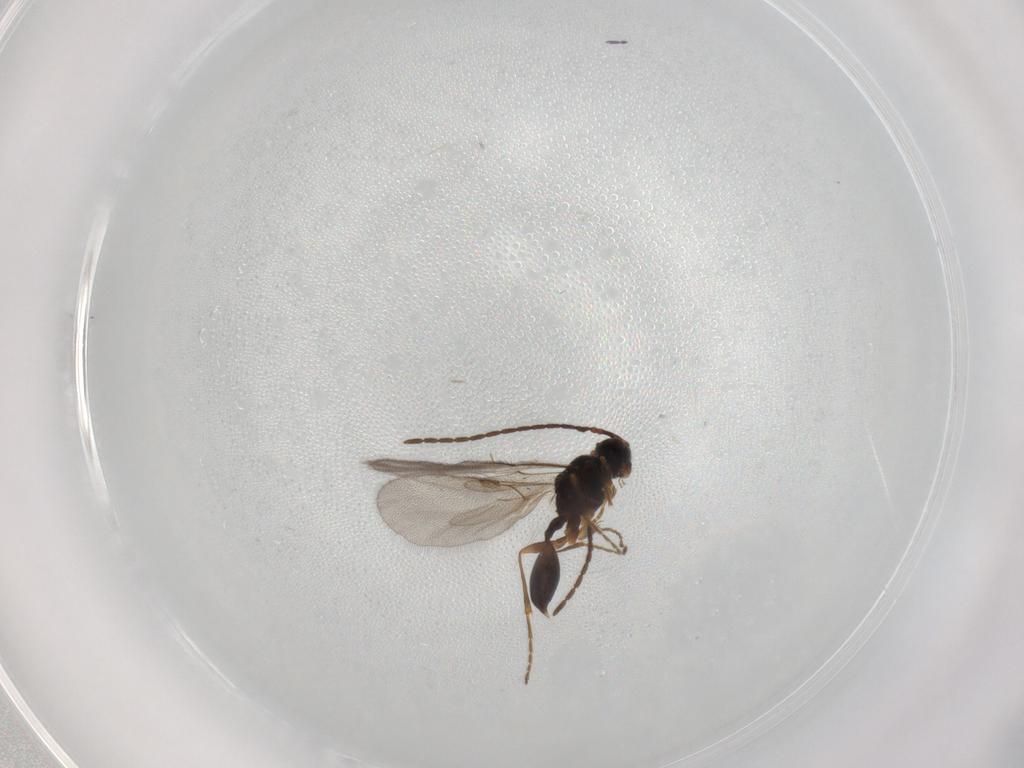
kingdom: Animalia
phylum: Arthropoda
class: Insecta
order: Hymenoptera
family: Diapriidae
